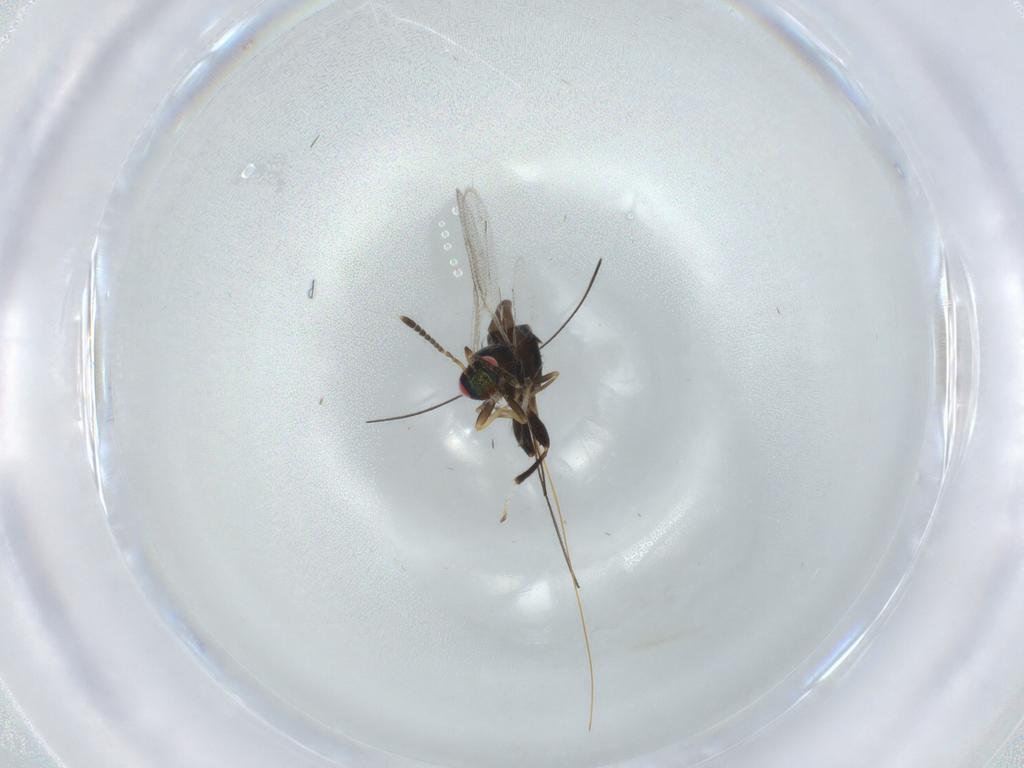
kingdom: Animalia
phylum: Arthropoda
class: Insecta
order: Hymenoptera
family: Torymidae
